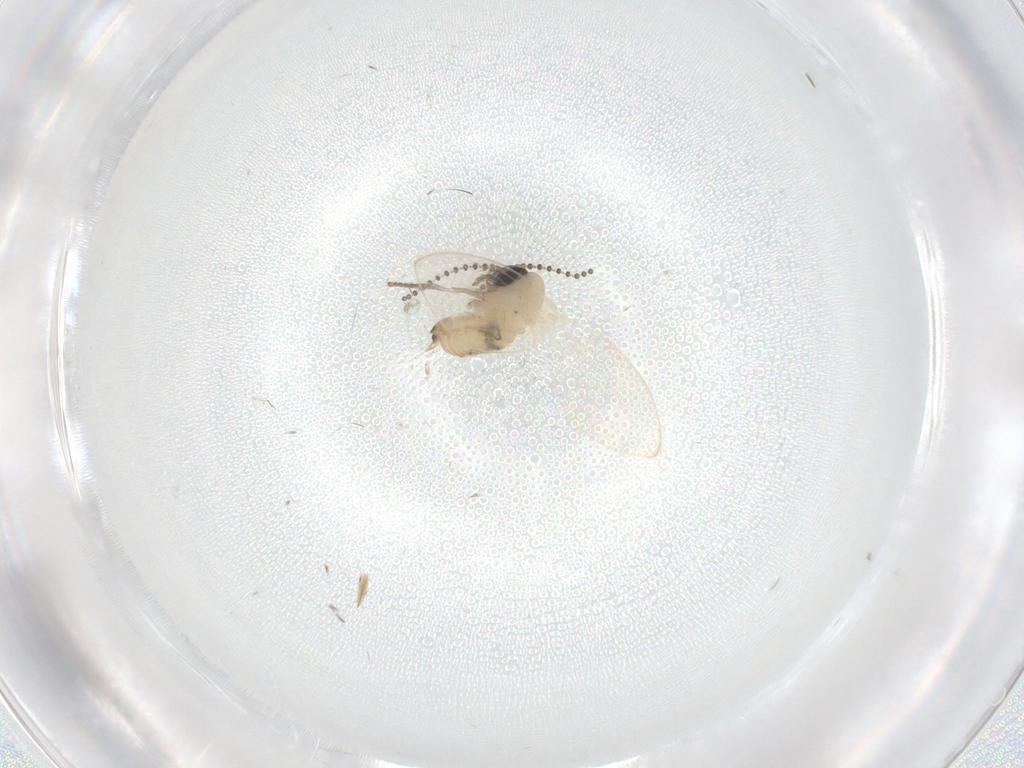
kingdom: Animalia
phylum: Arthropoda
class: Insecta
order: Diptera
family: Psychodidae
